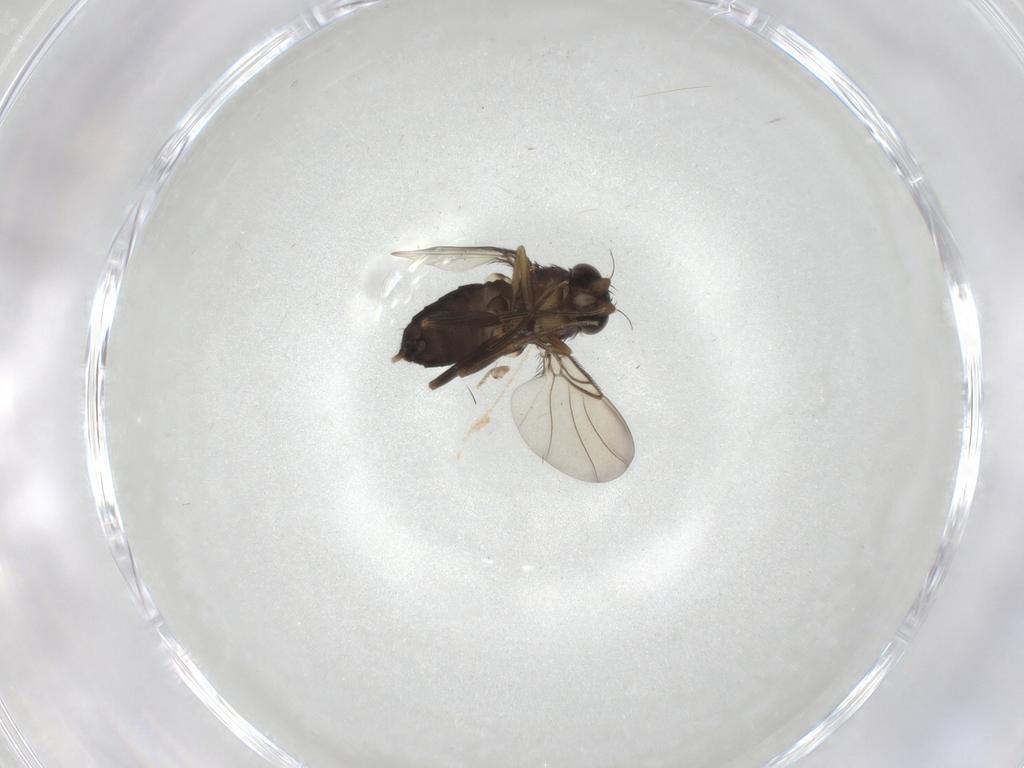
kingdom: Animalia
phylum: Arthropoda
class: Insecta
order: Diptera
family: Phoridae
